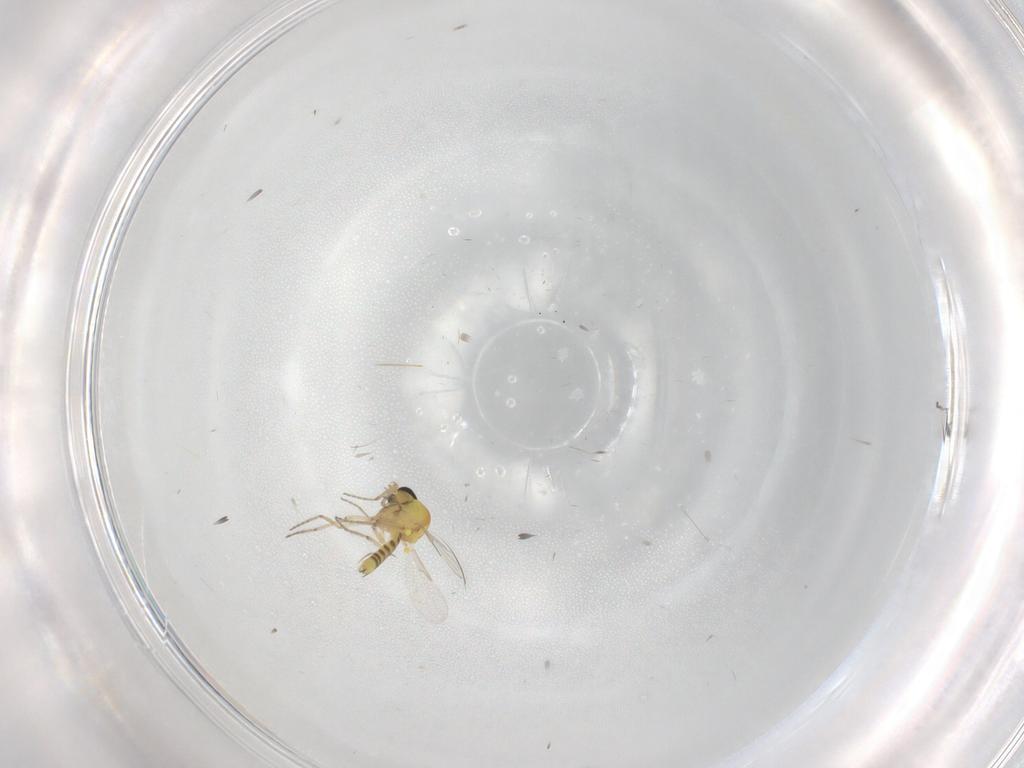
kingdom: Animalia
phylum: Arthropoda
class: Insecta
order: Diptera
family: Ceratopogonidae
